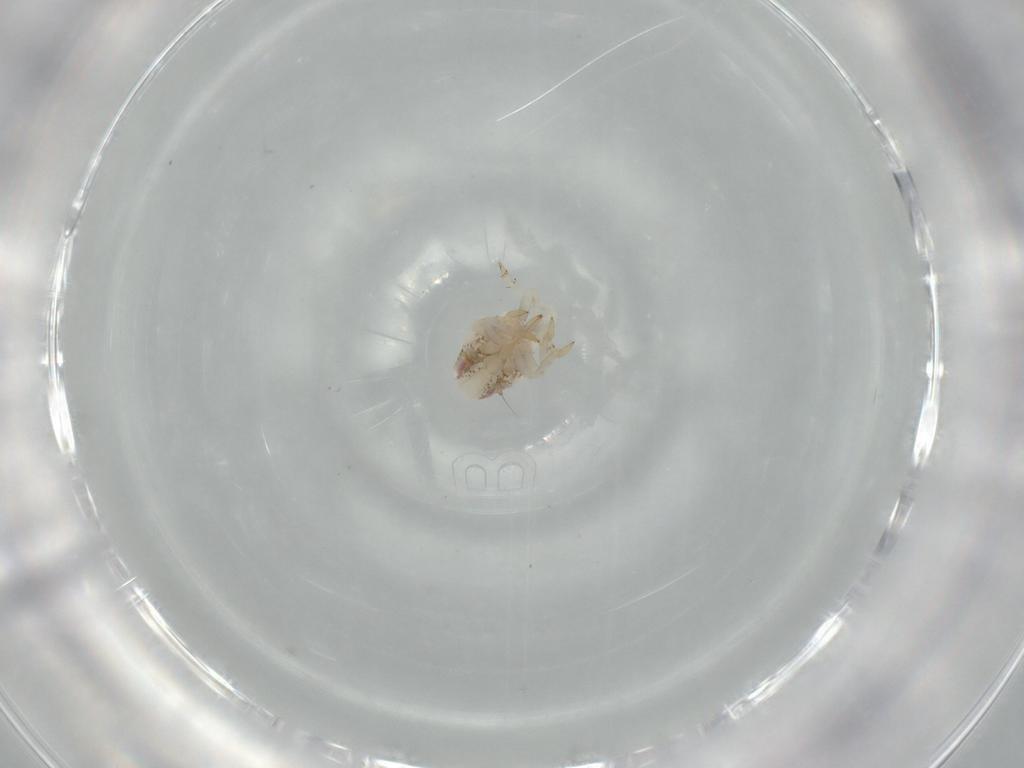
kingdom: Animalia
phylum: Arthropoda
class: Insecta
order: Hemiptera
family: Acanaloniidae
